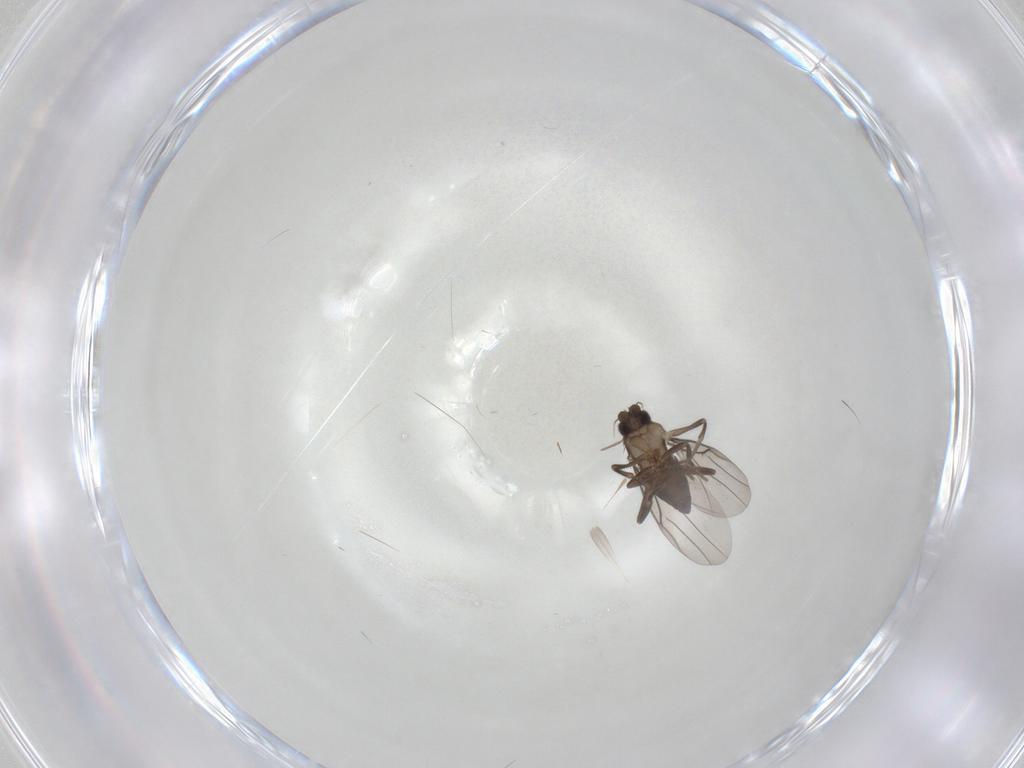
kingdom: Animalia
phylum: Arthropoda
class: Insecta
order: Diptera
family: Phoridae
